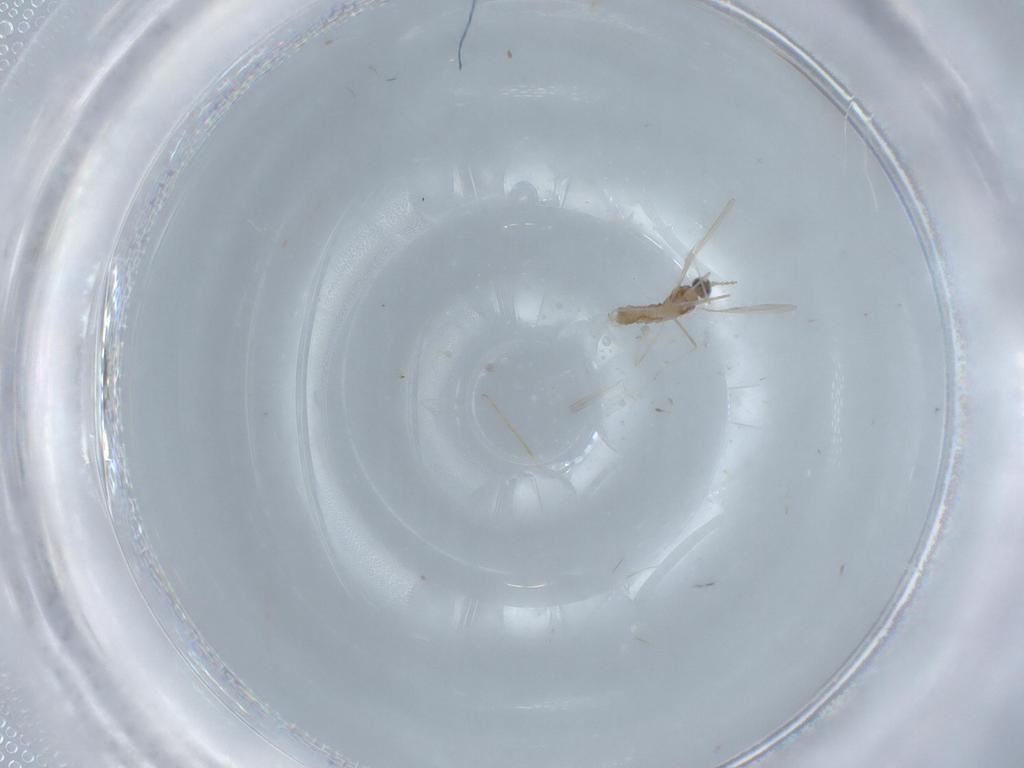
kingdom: Animalia
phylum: Arthropoda
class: Insecta
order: Diptera
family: Cecidomyiidae
